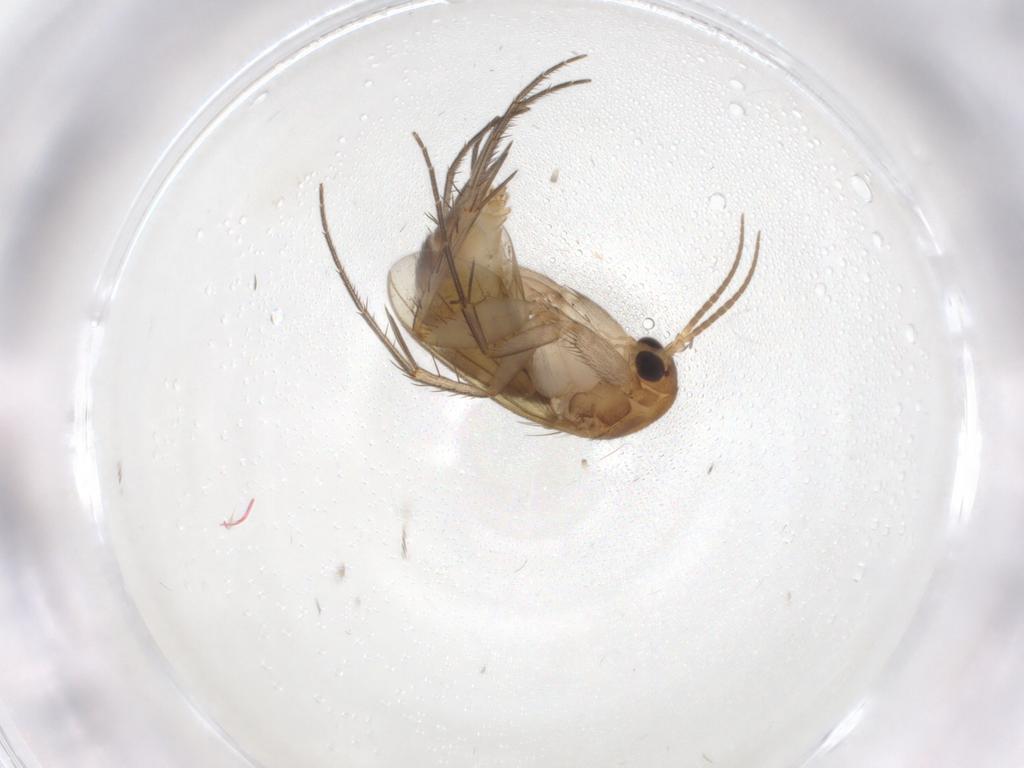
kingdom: Animalia
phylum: Arthropoda
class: Insecta
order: Diptera
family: Mycetophilidae
